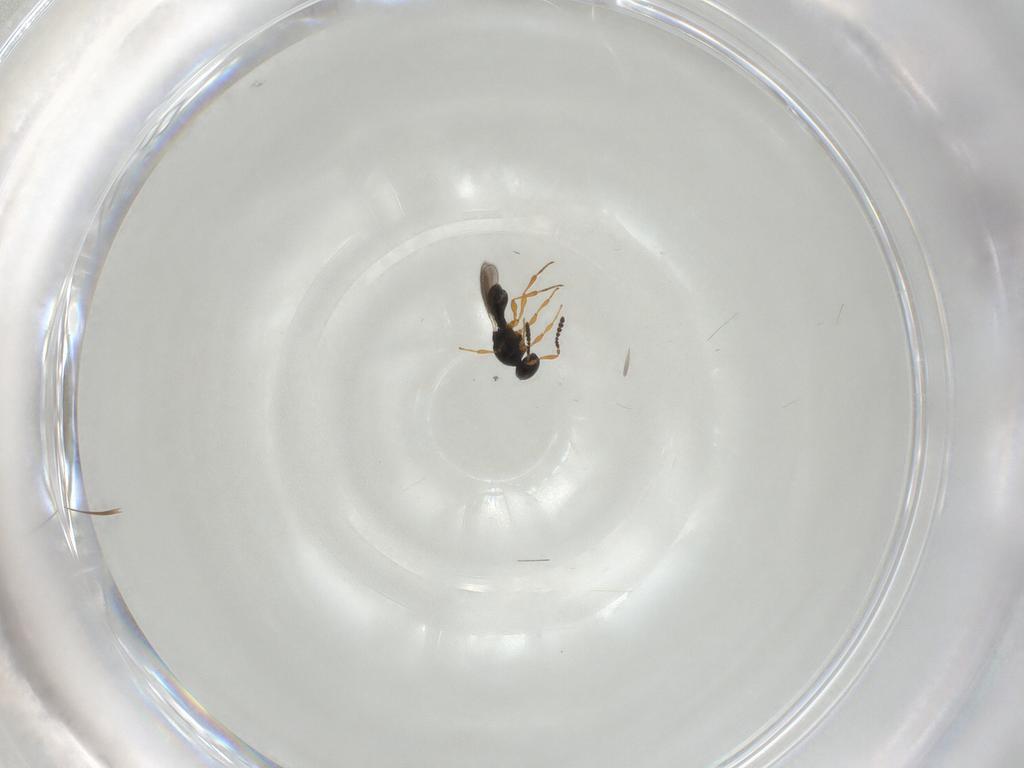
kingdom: Animalia
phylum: Arthropoda
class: Insecta
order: Hymenoptera
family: Platygastridae
